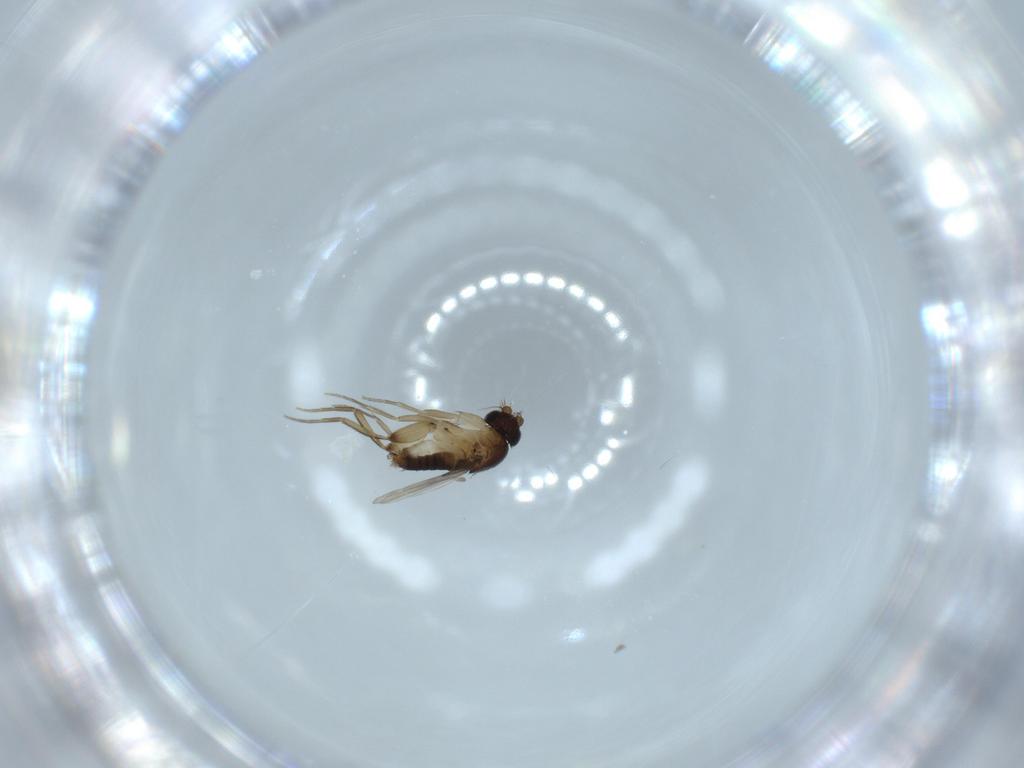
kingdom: Animalia
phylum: Arthropoda
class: Insecta
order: Diptera
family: Phoridae
